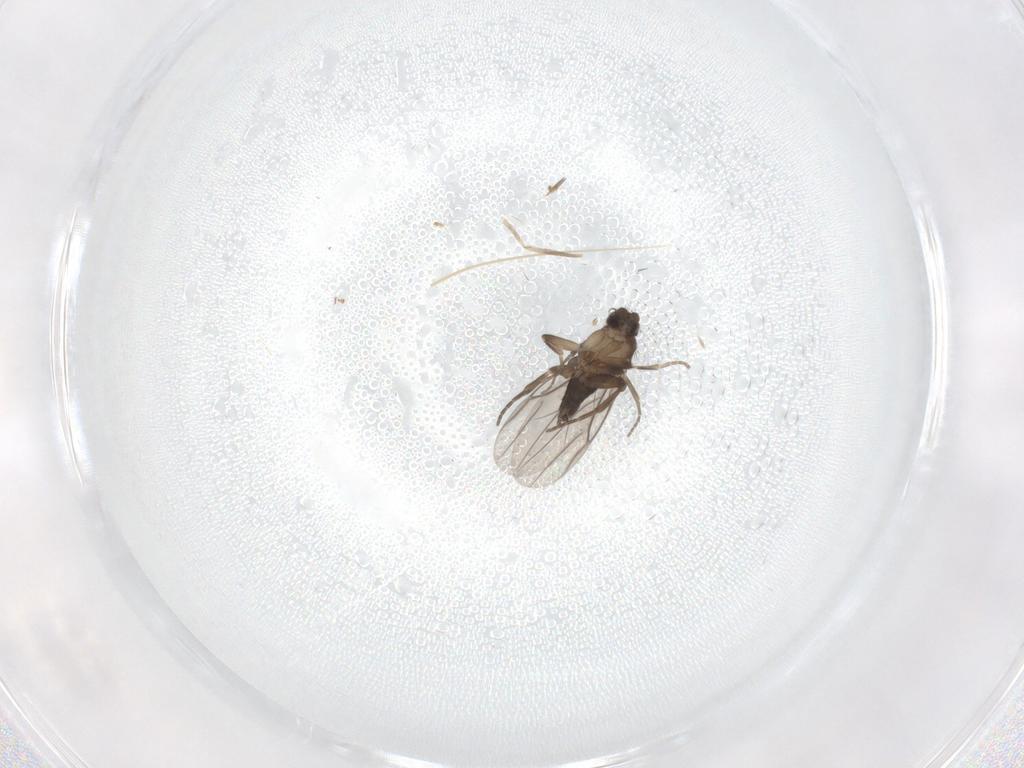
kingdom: Animalia
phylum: Arthropoda
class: Insecta
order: Diptera
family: Chironomidae
